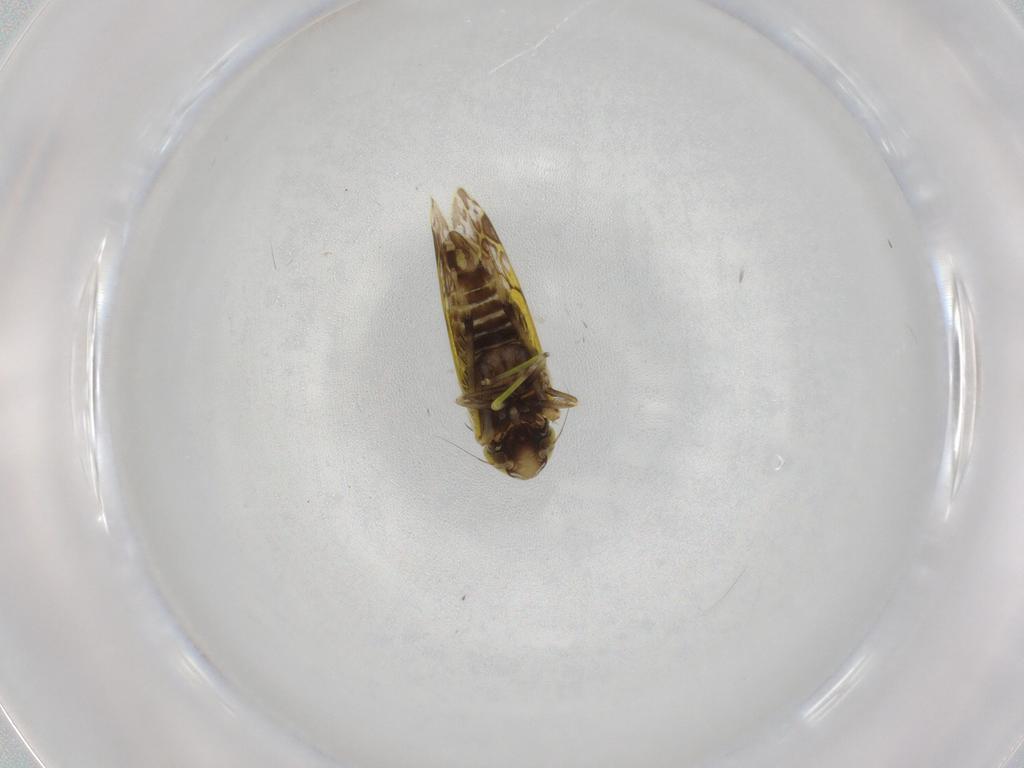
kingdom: Animalia
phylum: Arthropoda
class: Insecta
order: Hemiptera
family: Cicadellidae
